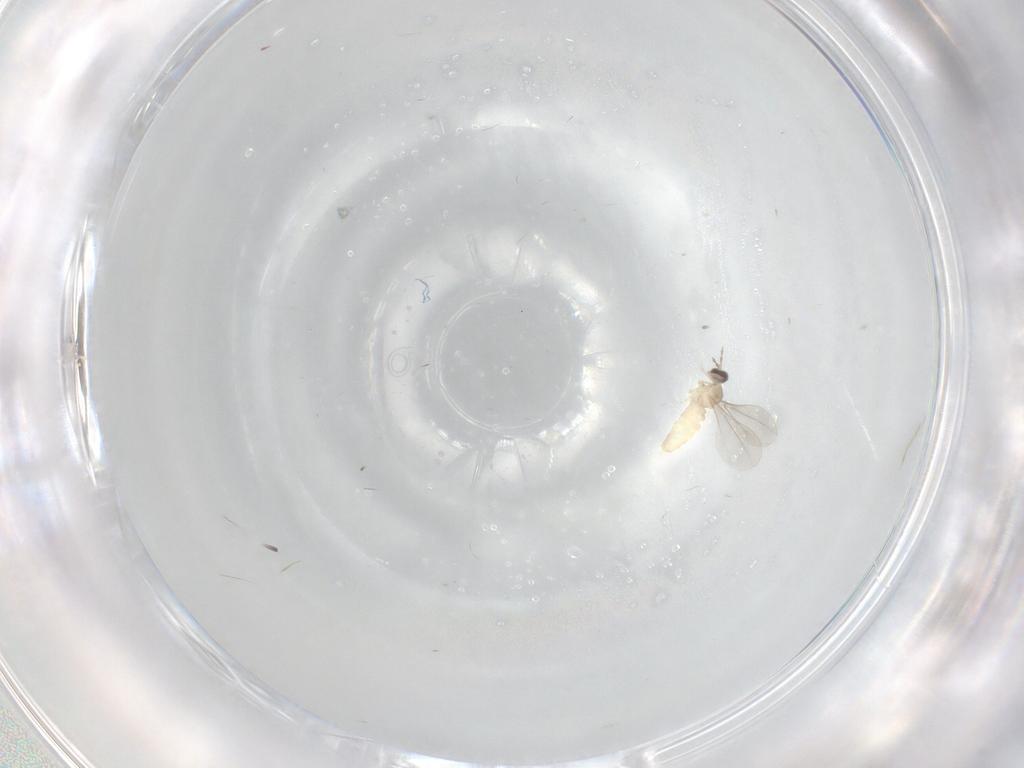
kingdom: Animalia
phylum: Arthropoda
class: Insecta
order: Diptera
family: Cecidomyiidae
